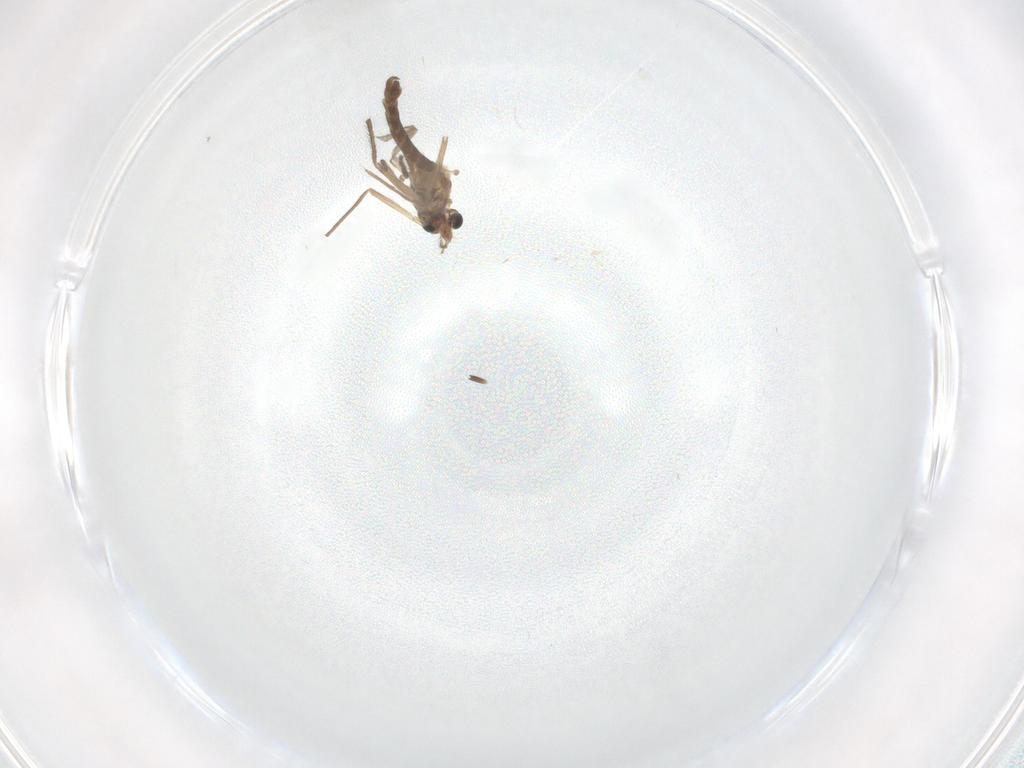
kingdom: Animalia
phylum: Arthropoda
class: Insecta
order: Diptera
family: Chironomidae
